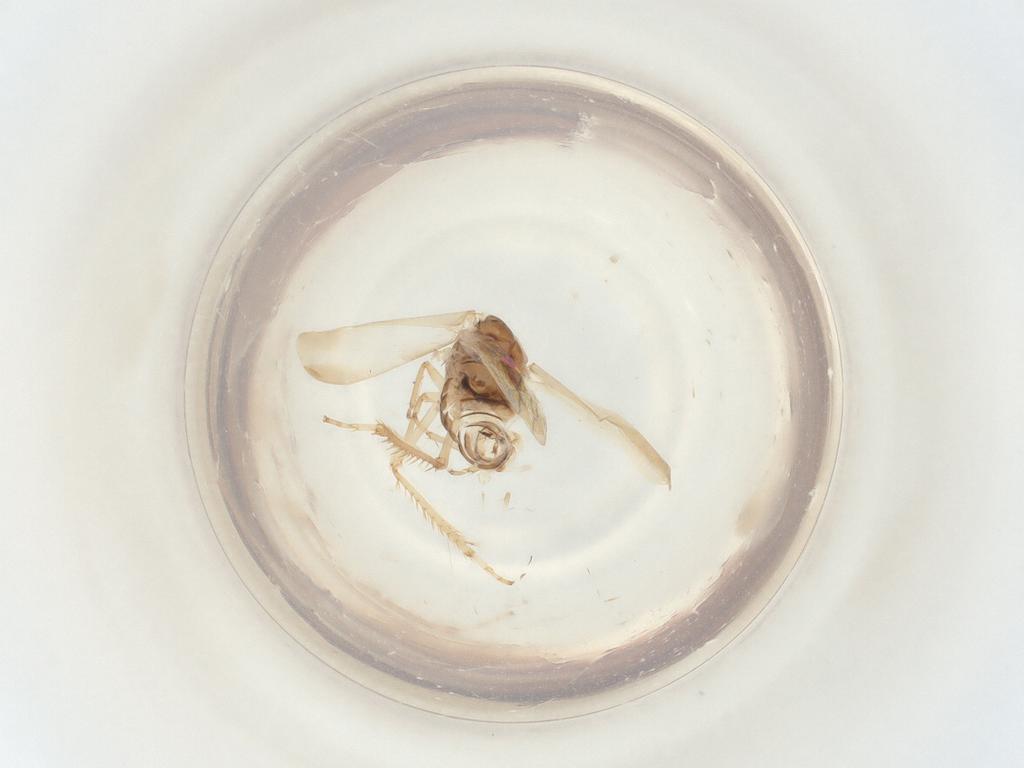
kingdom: Animalia
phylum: Arthropoda
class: Insecta
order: Hemiptera
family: Cicadellidae
